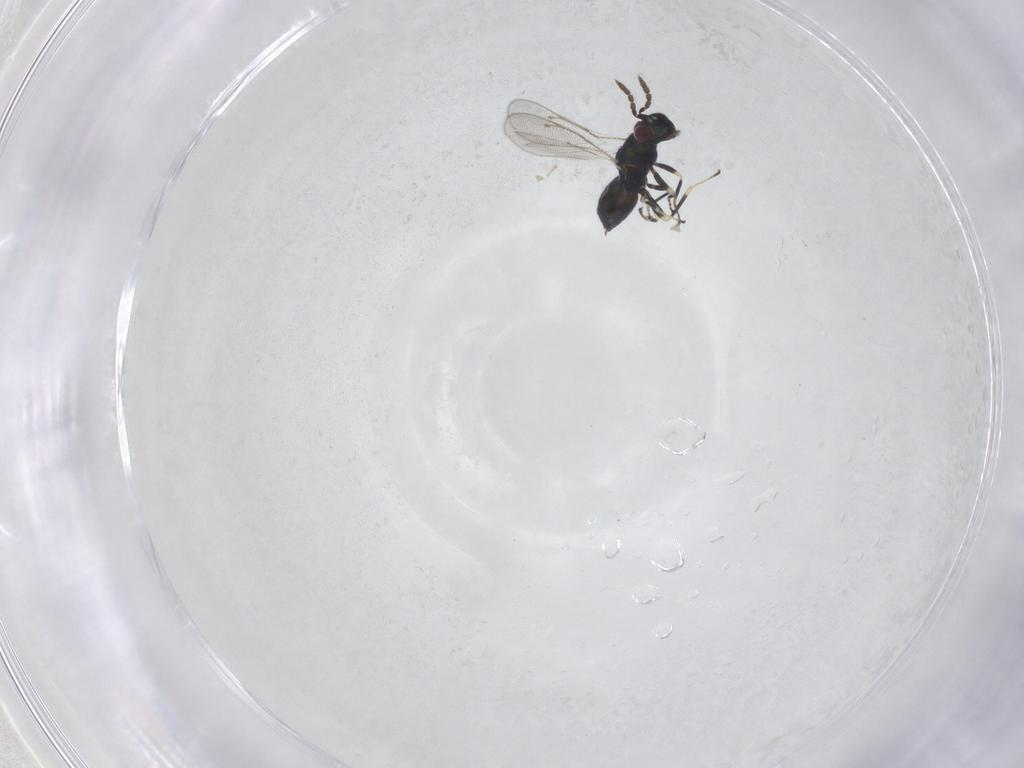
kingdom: Animalia
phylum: Arthropoda
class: Insecta
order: Hymenoptera
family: Eulophidae
